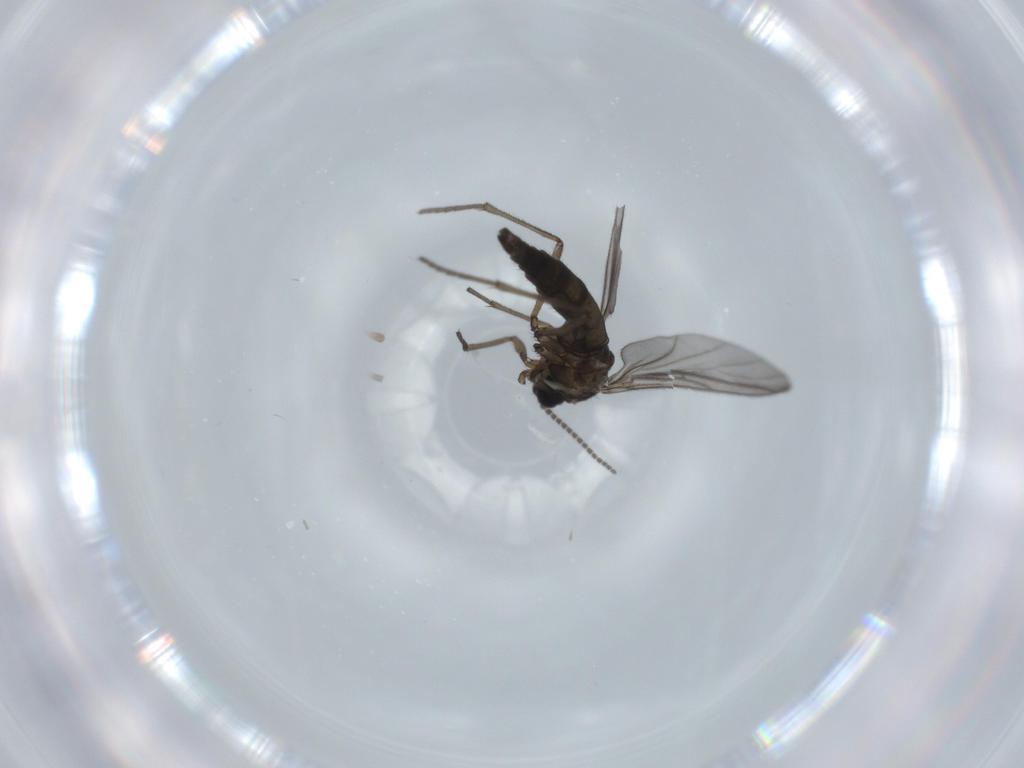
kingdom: Animalia
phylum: Arthropoda
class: Insecta
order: Diptera
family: Sciaridae
